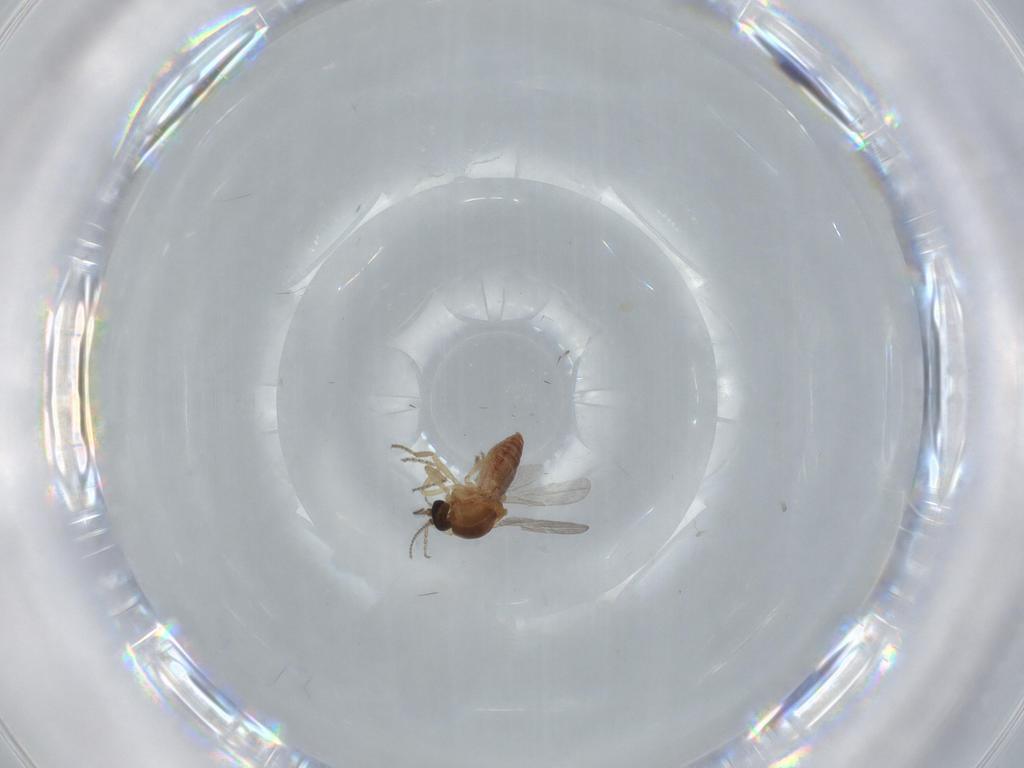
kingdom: Animalia
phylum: Arthropoda
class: Insecta
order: Diptera
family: Ceratopogonidae
